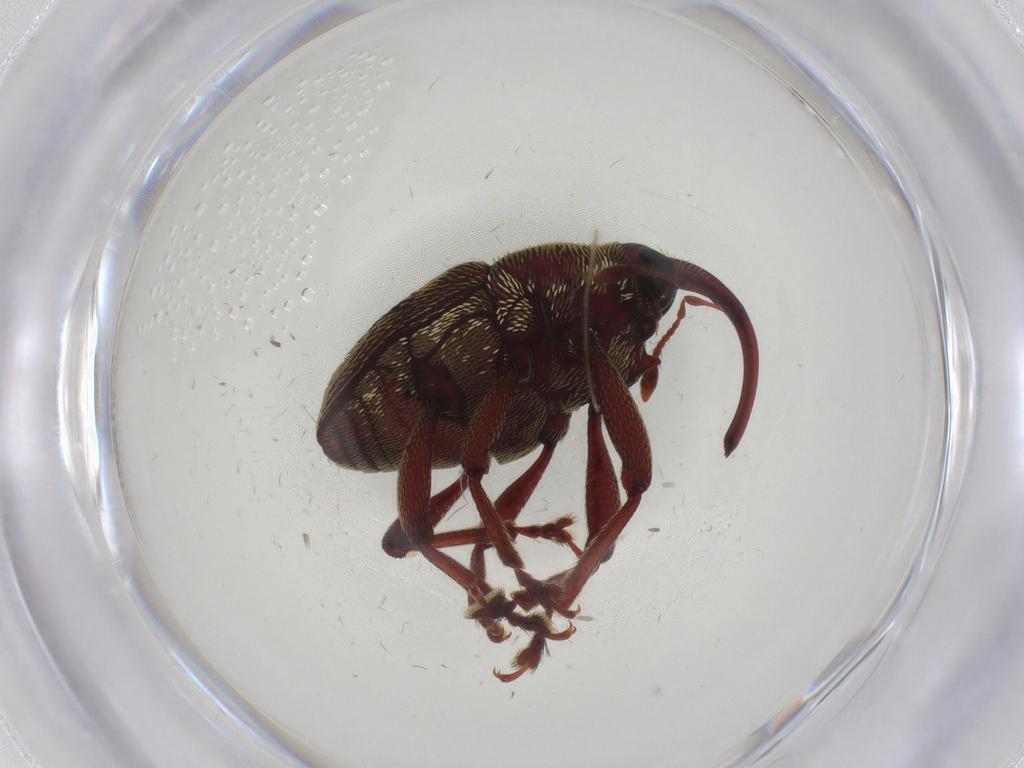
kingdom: Animalia
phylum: Arthropoda
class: Insecta
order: Coleoptera
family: Curculionidae
